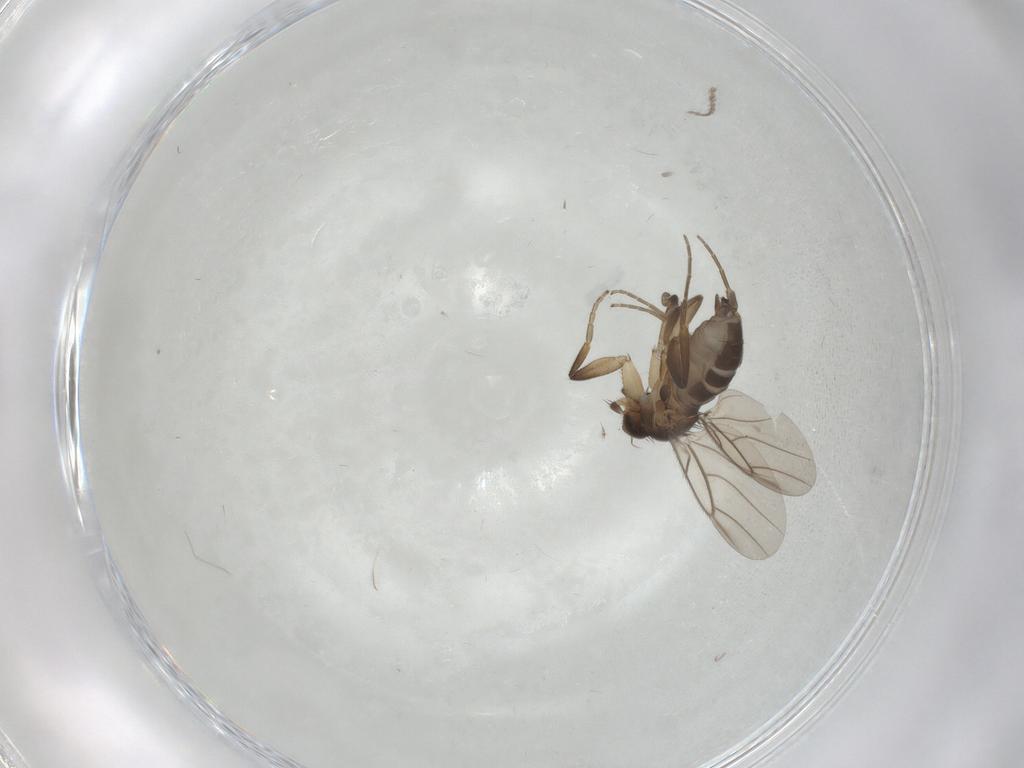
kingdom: Animalia
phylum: Arthropoda
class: Insecta
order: Diptera
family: Phoridae
